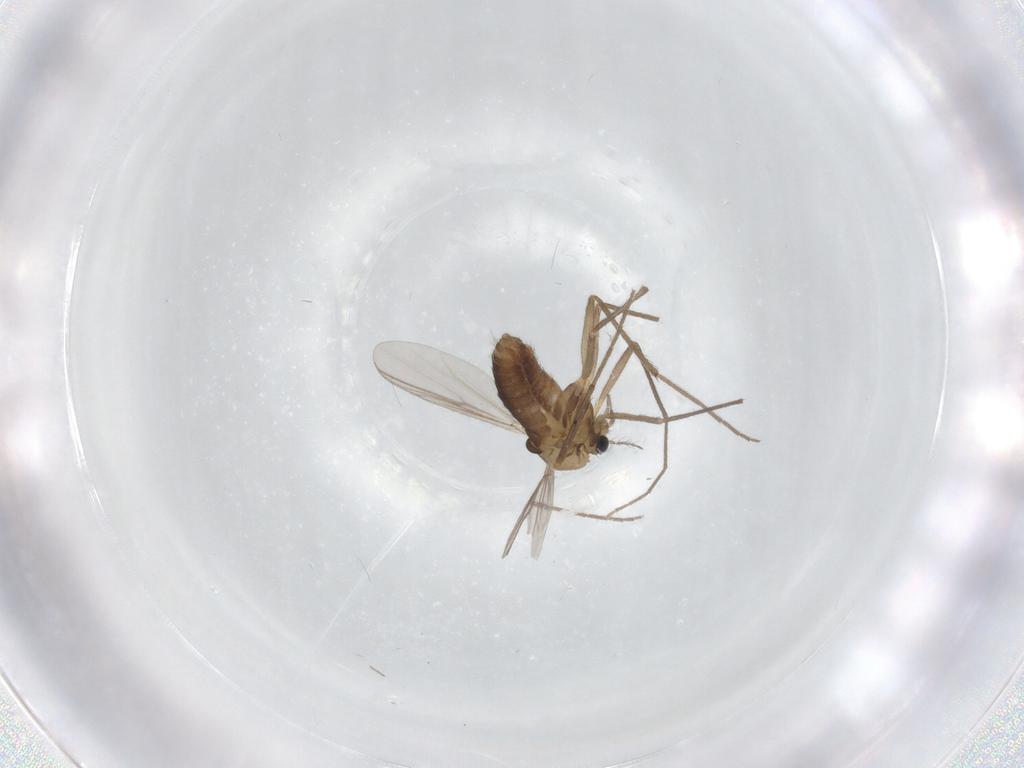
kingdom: Animalia
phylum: Arthropoda
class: Insecta
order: Diptera
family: Chironomidae
